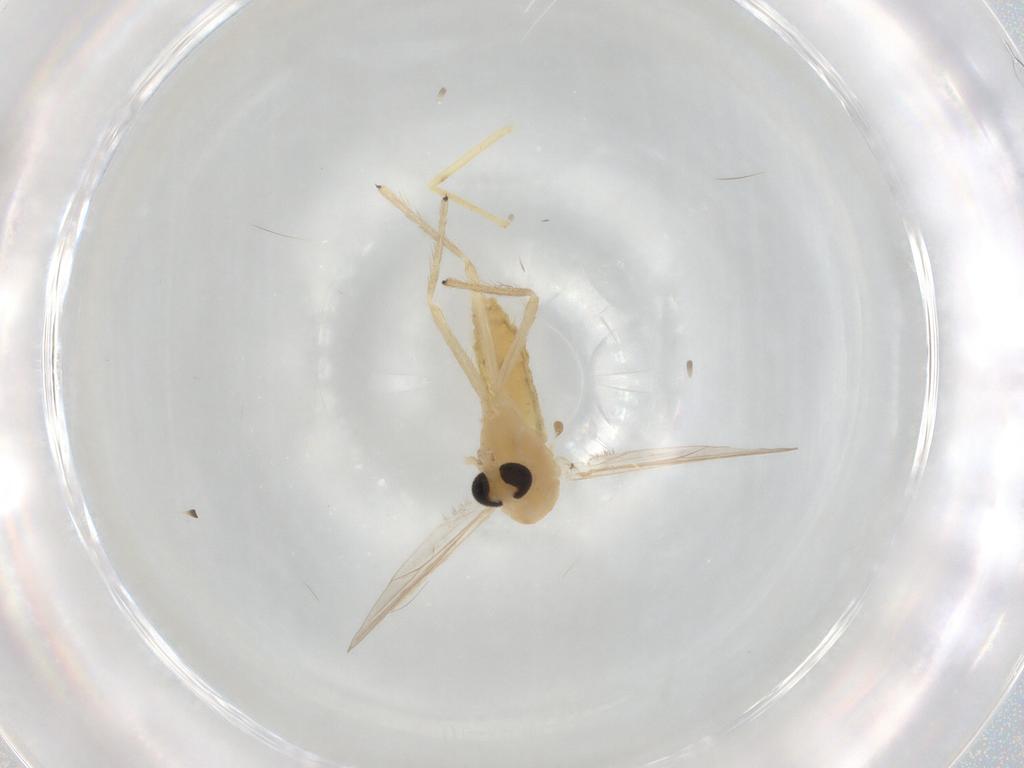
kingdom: Animalia
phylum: Arthropoda
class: Insecta
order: Diptera
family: Chironomidae
